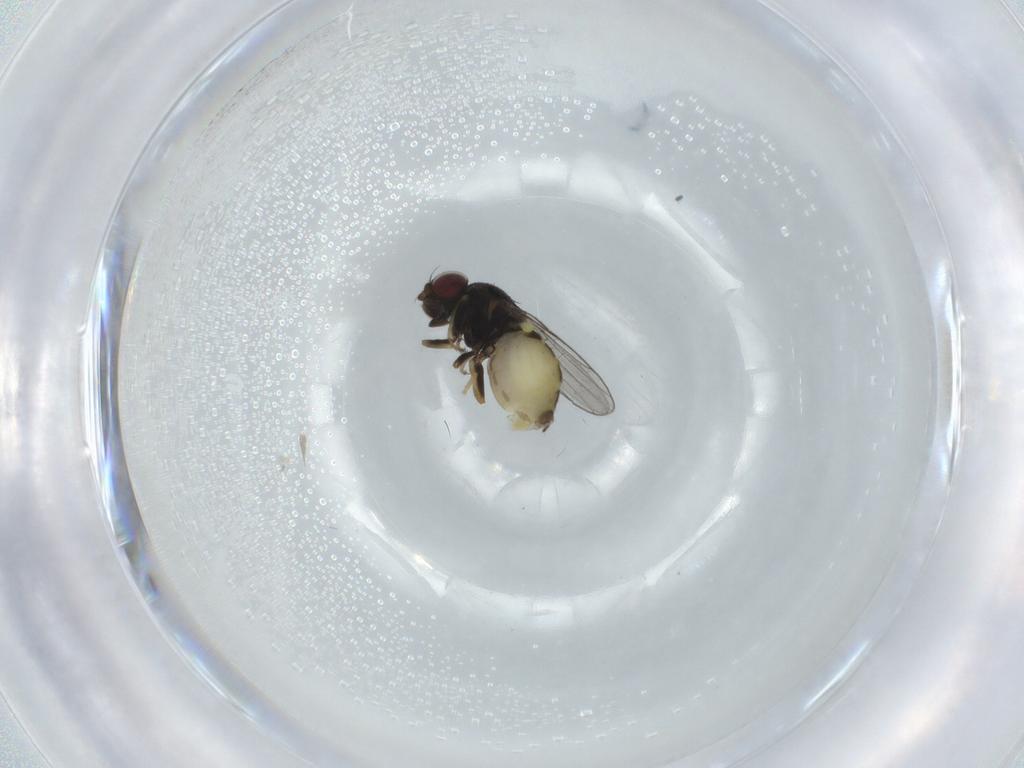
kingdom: Animalia
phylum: Arthropoda
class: Insecta
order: Diptera
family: Chloropidae
